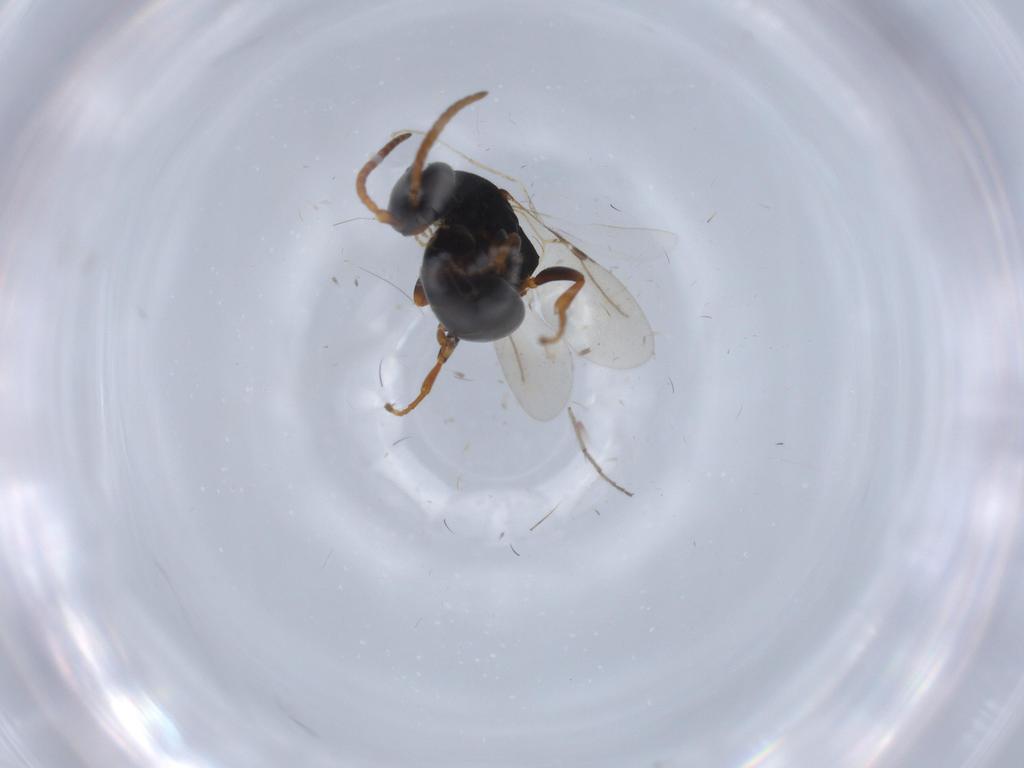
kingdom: Animalia
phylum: Arthropoda
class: Insecta
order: Hymenoptera
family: Bethylidae
